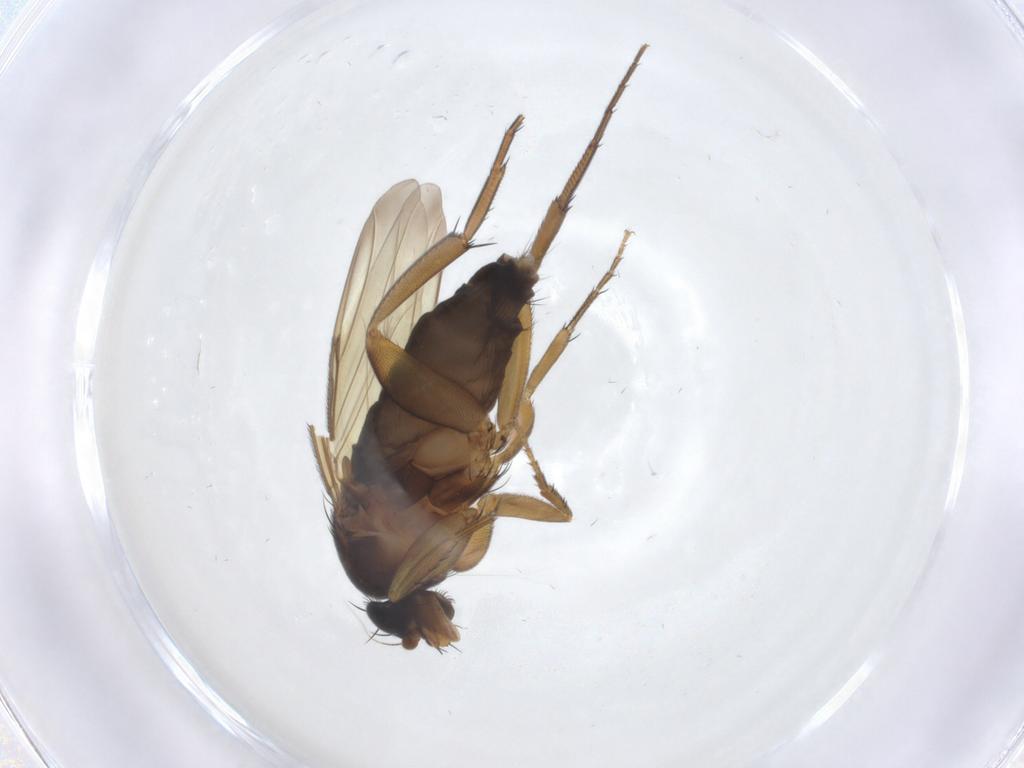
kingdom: Animalia
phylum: Arthropoda
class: Insecta
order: Diptera
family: Phoridae
